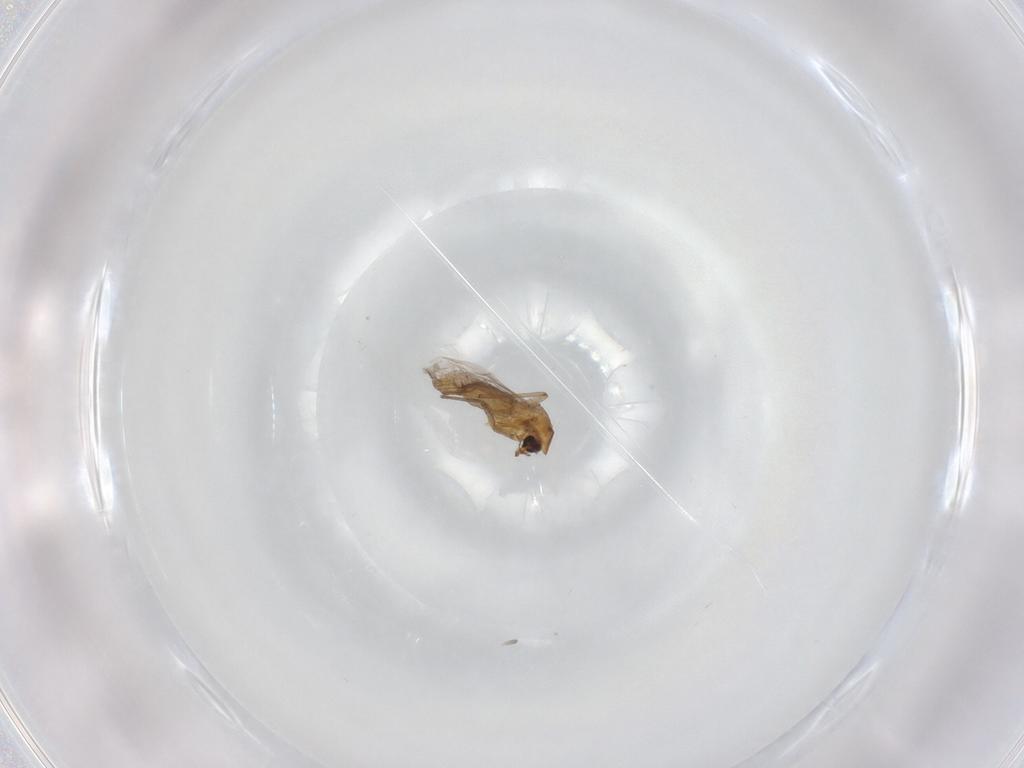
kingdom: Animalia
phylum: Arthropoda
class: Insecta
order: Diptera
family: Chironomidae
